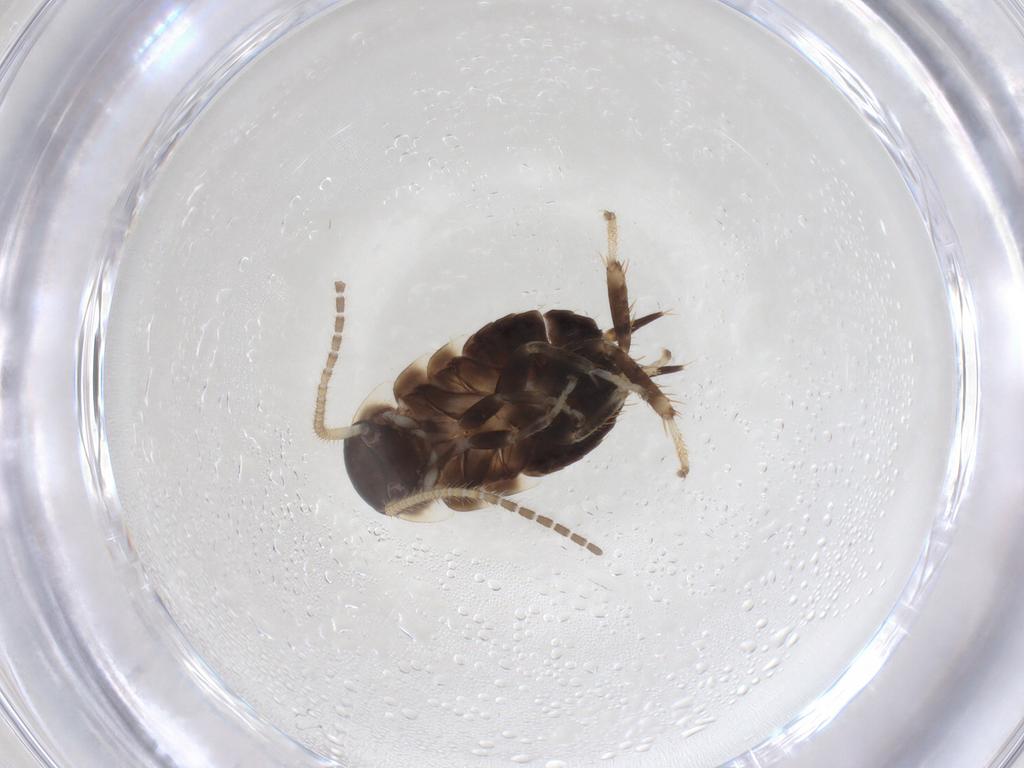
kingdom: Animalia
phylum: Arthropoda
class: Insecta
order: Blattodea
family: Blaberidae
